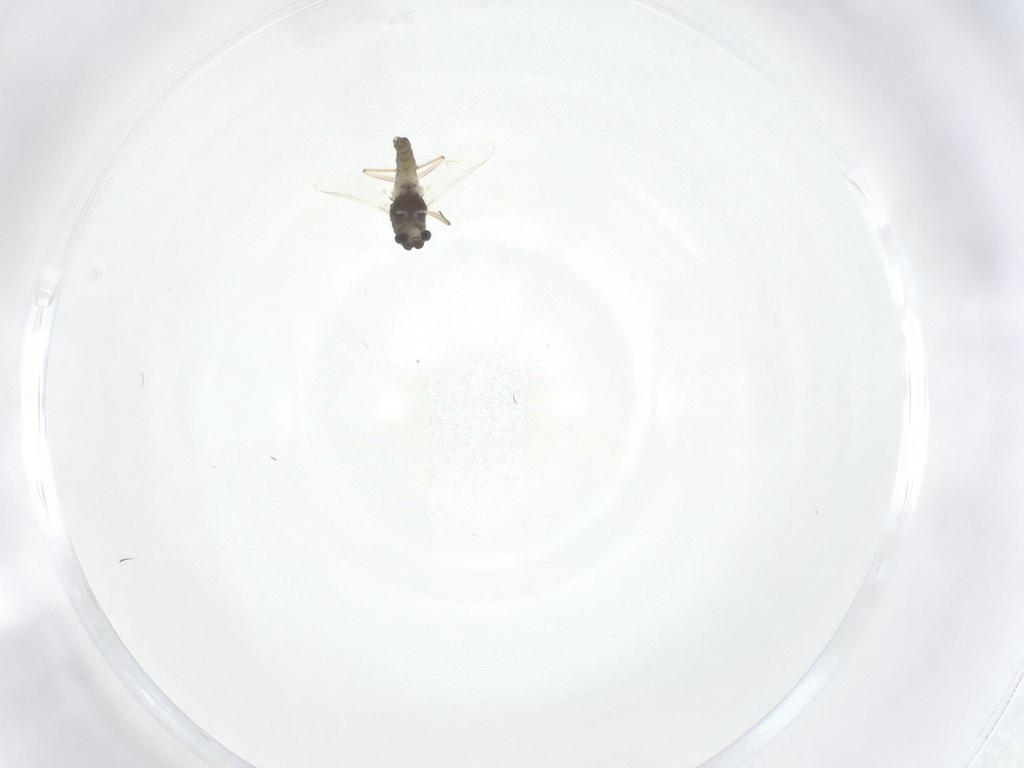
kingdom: Animalia
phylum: Arthropoda
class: Insecta
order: Diptera
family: Chironomidae
